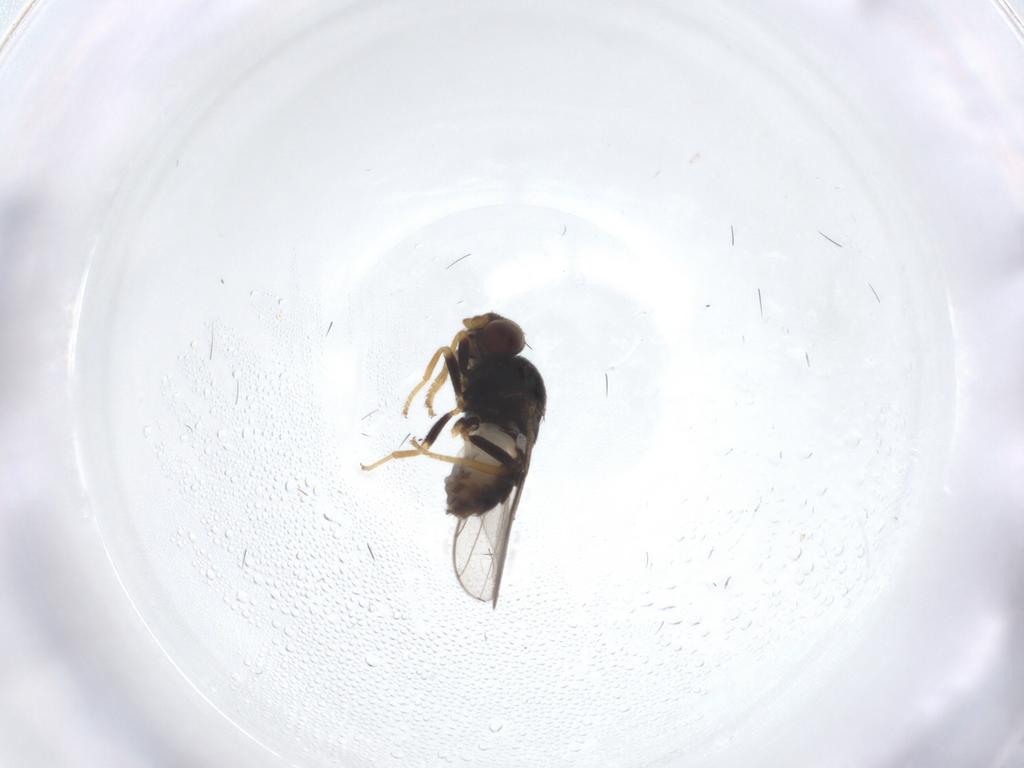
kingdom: Animalia
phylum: Arthropoda
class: Insecta
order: Diptera
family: Chloropidae
